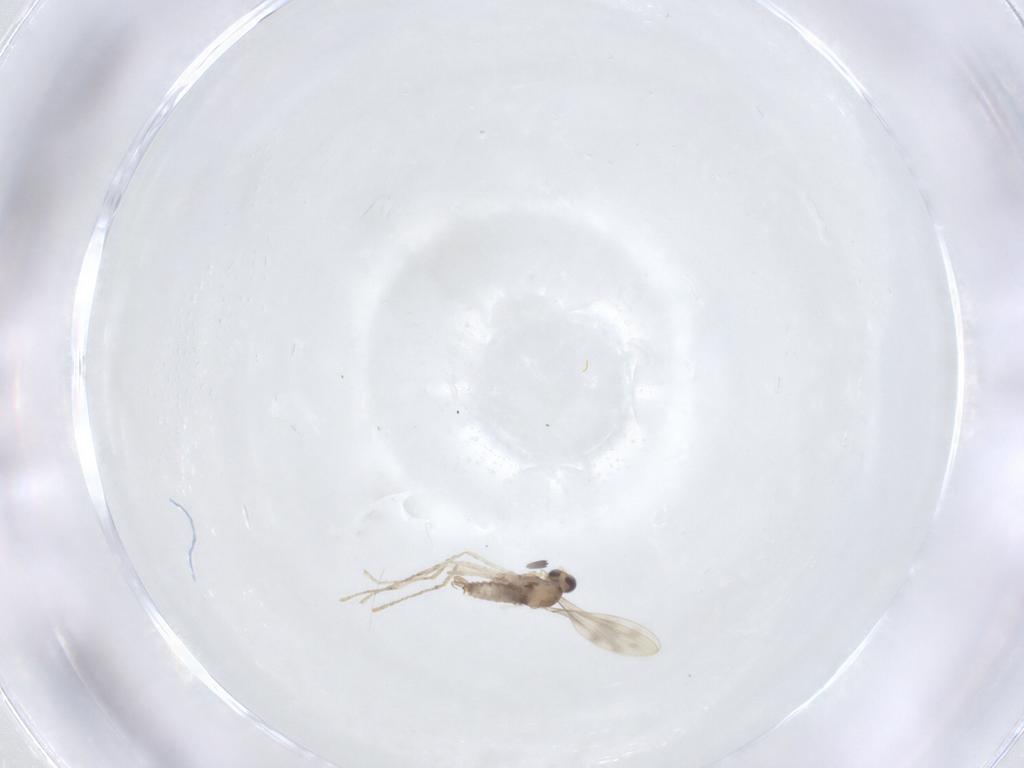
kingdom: Animalia
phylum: Arthropoda
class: Insecta
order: Diptera
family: Cecidomyiidae
